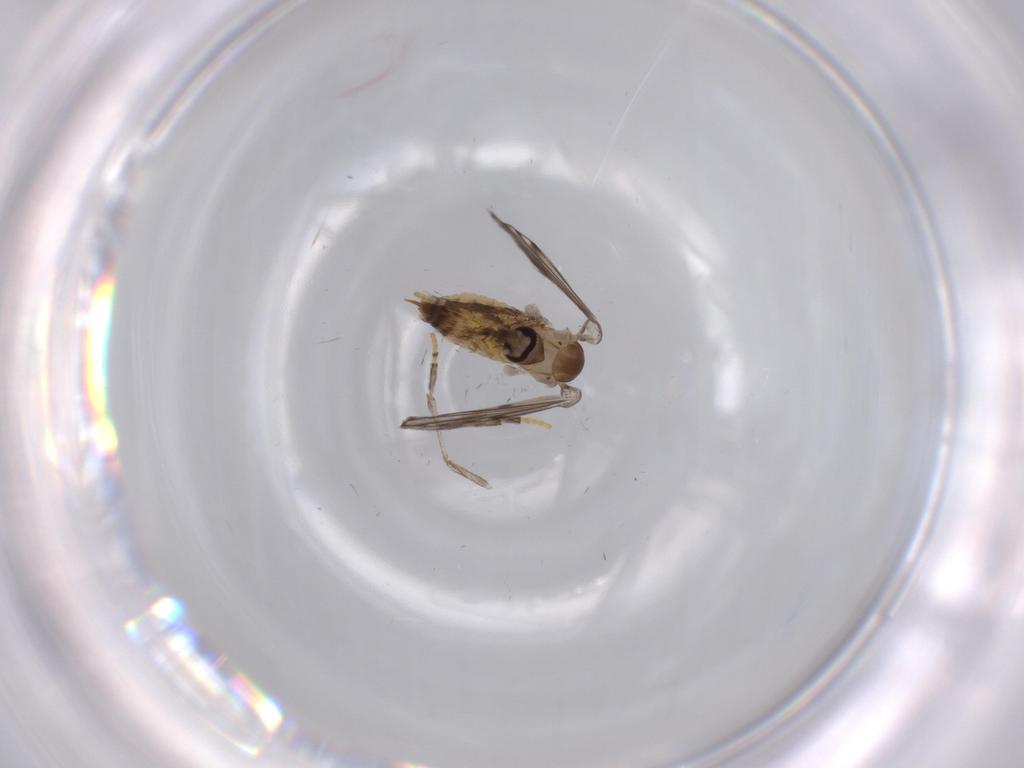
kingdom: Animalia
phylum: Arthropoda
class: Insecta
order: Diptera
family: Psychodidae
